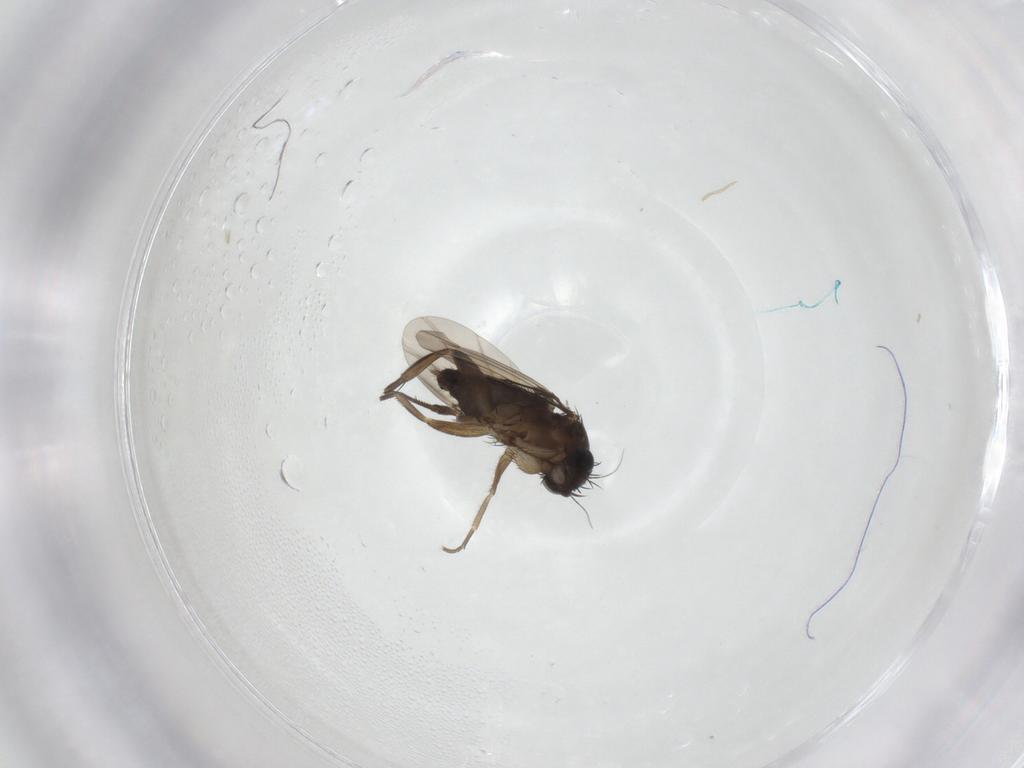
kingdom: Animalia
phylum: Arthropoda
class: Insecta
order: Diptera
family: Phoridae
